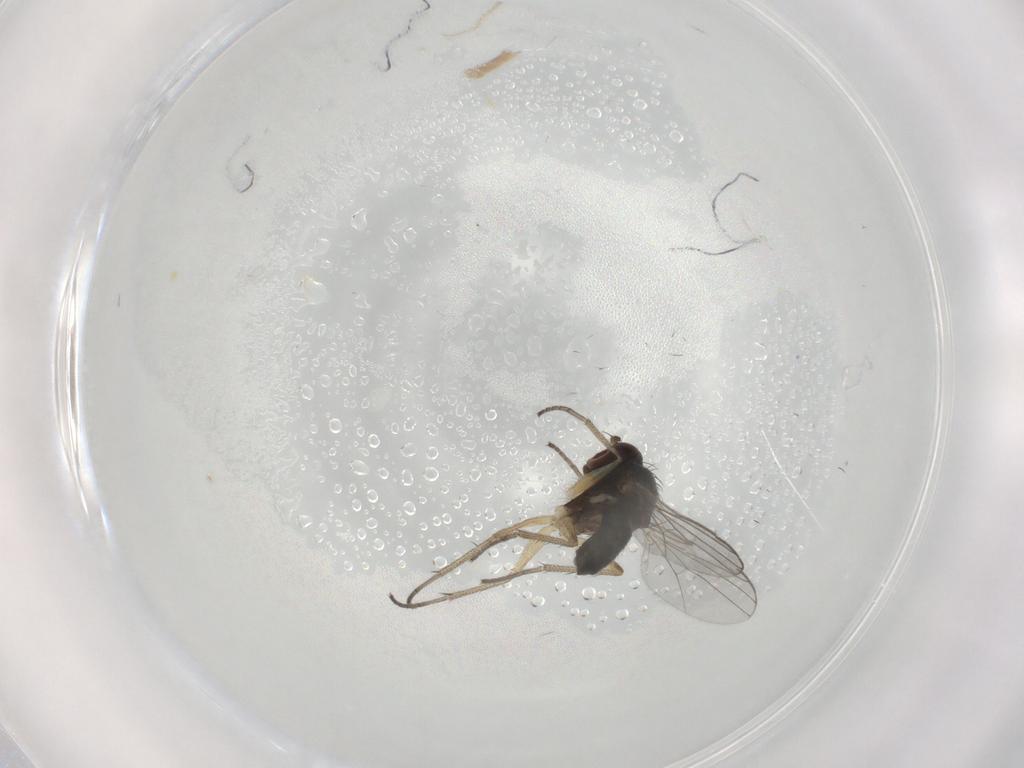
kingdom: Animalia
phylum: Arthropoda
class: Insecta
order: Diptera
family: Dolichopodidae
